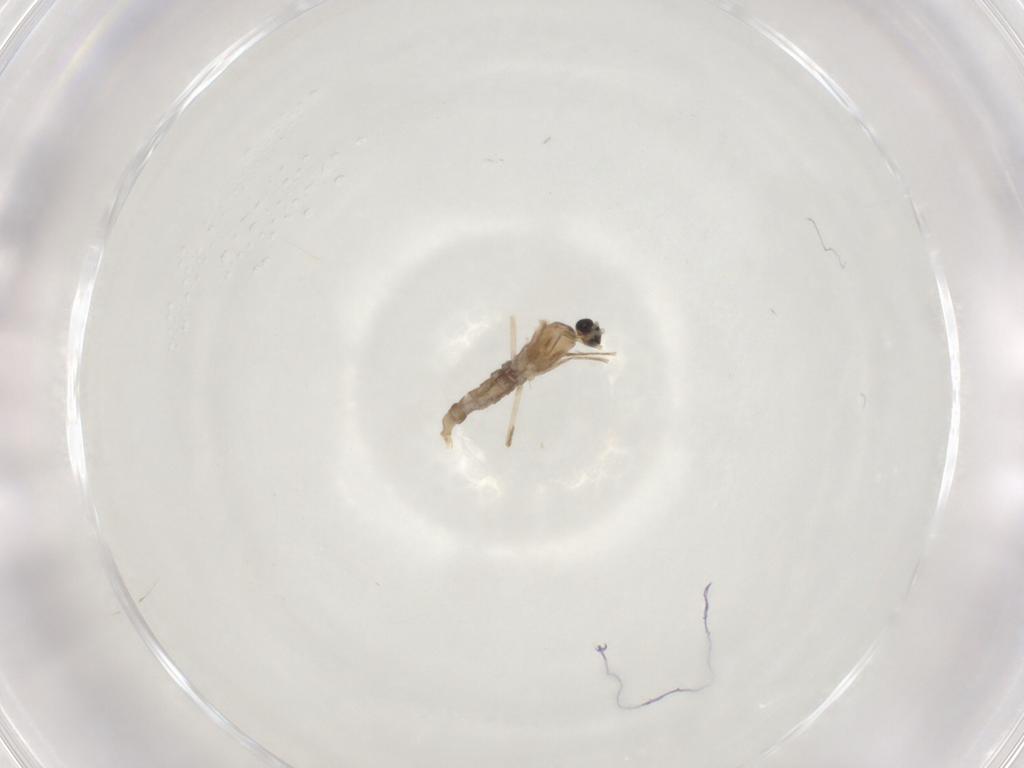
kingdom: Animalia
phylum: Arthropoda
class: Insecta
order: Diptera
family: Cecidomyiidae
